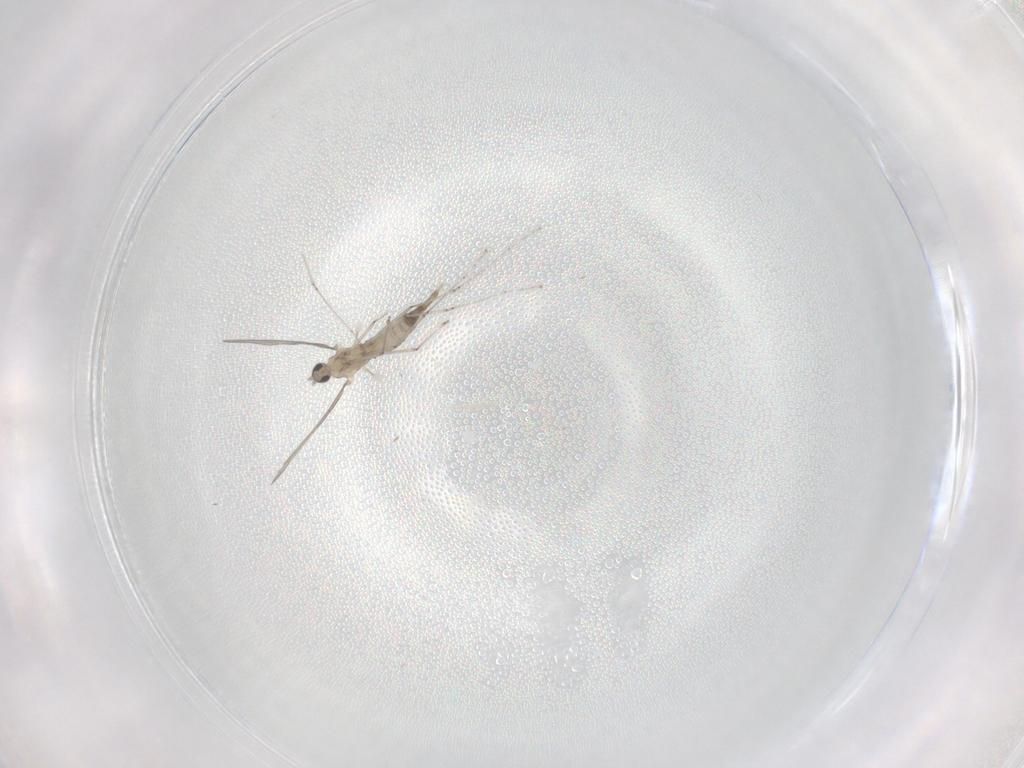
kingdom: Animalia
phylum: Arthropoda
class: Insecta
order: Diptera
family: Cecidomyiidae
